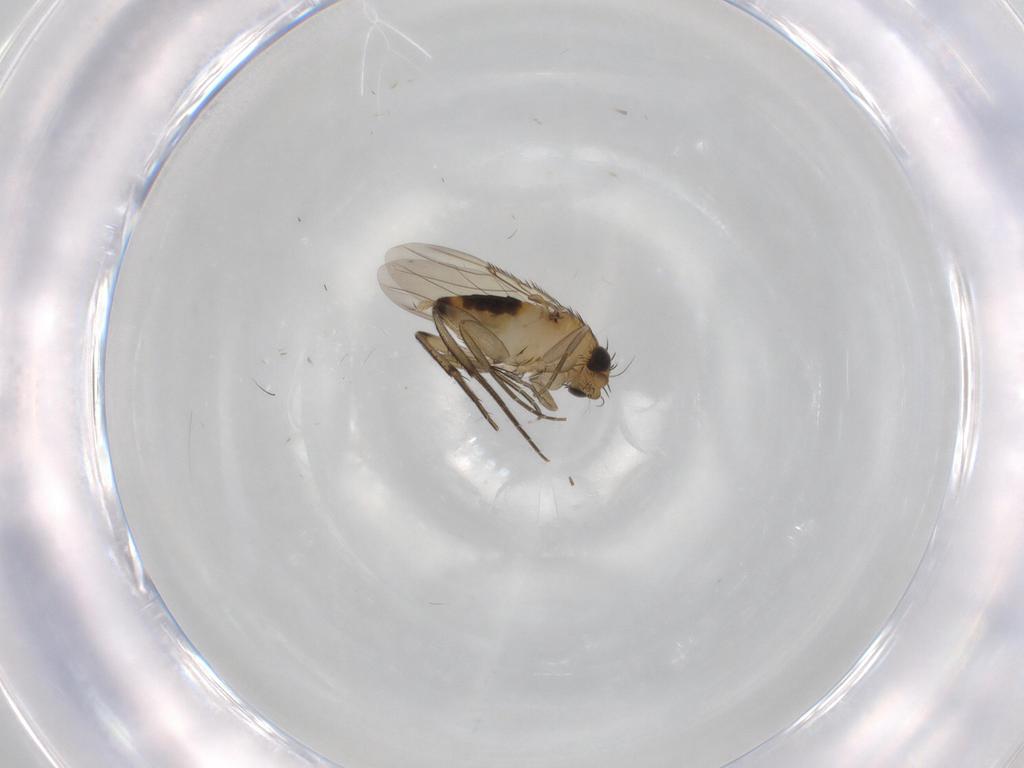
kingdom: Animalia
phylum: Arthropoda
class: Insecta
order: Diptera
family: Phoridae
